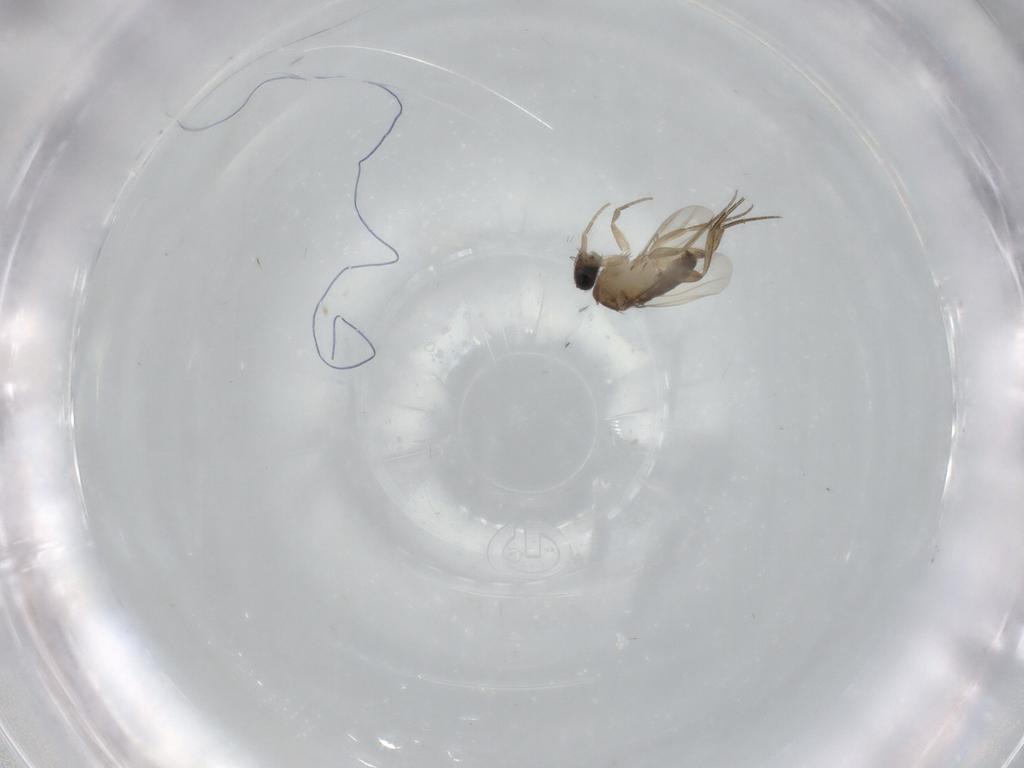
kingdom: Animalia
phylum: Arthropoda
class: Insecta
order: Diptera
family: Phoridae
